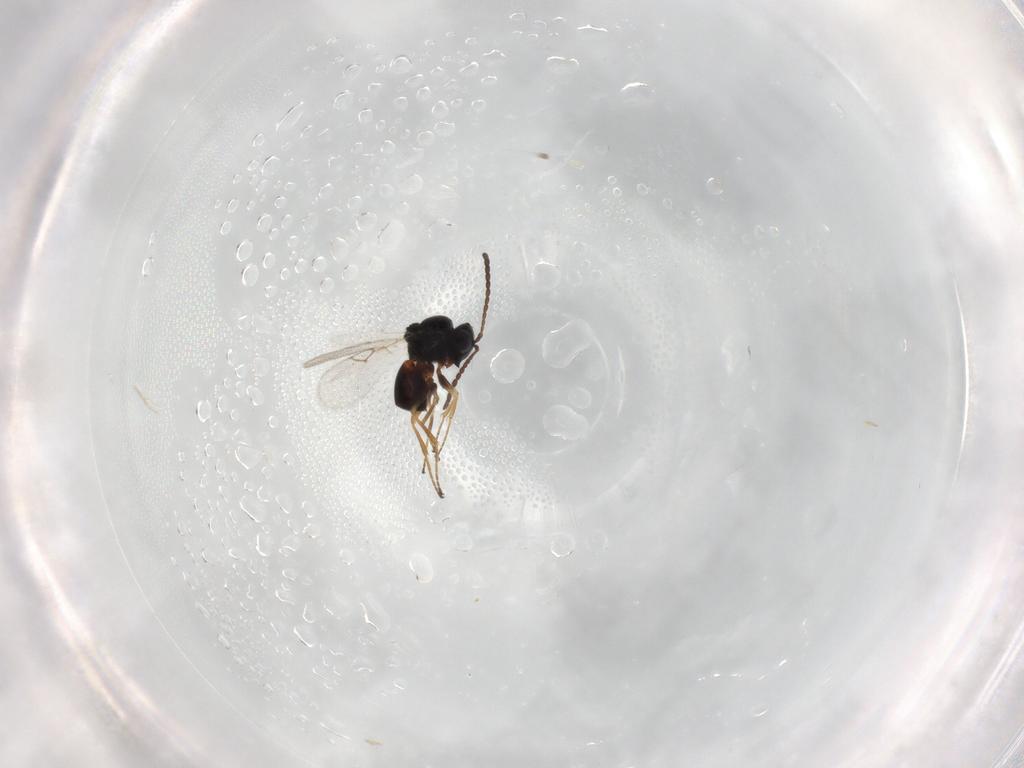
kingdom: Animalia
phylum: Arthropoda
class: Insecta
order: Hymenoptera
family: Figitidae
